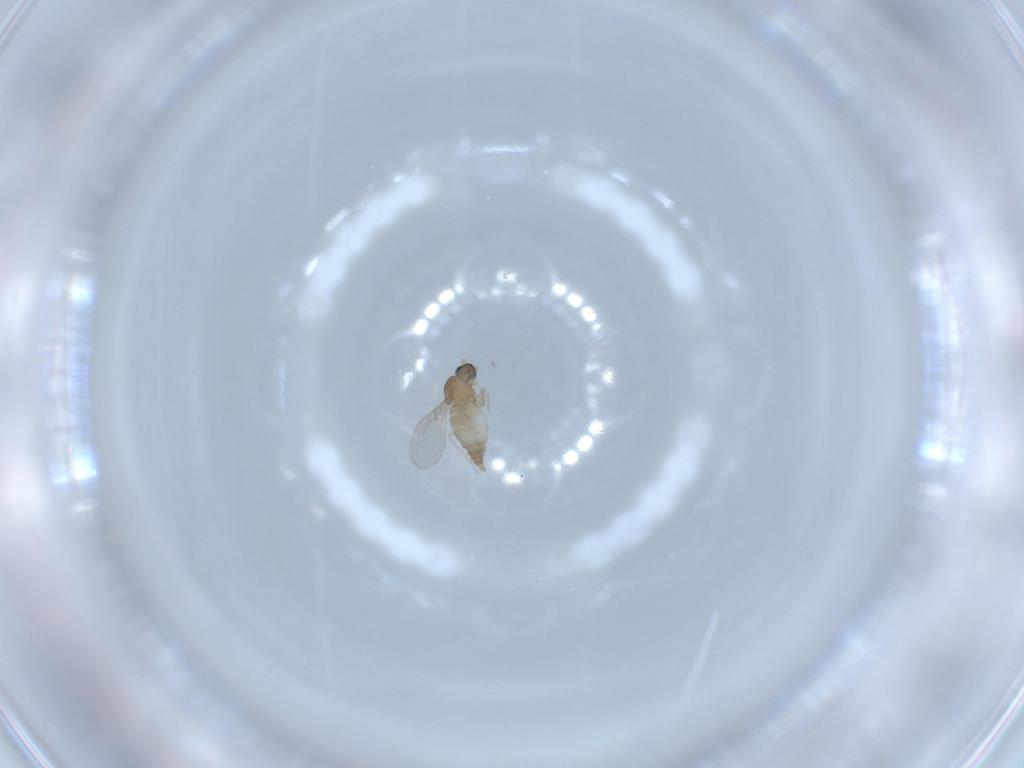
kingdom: Animalia
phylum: Arthropoda
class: Insecta
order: Diptera
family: Cecidomyiidae
